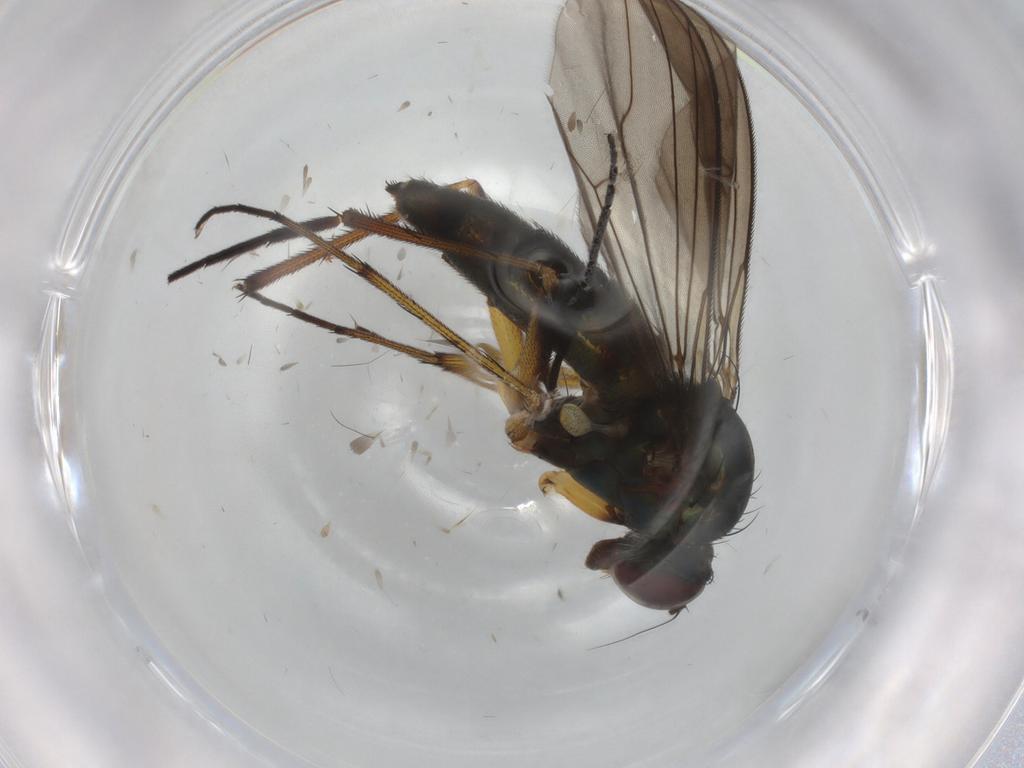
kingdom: Animalia
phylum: Arthropoda
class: Insecta
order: Diptera
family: Dolichopodidae
